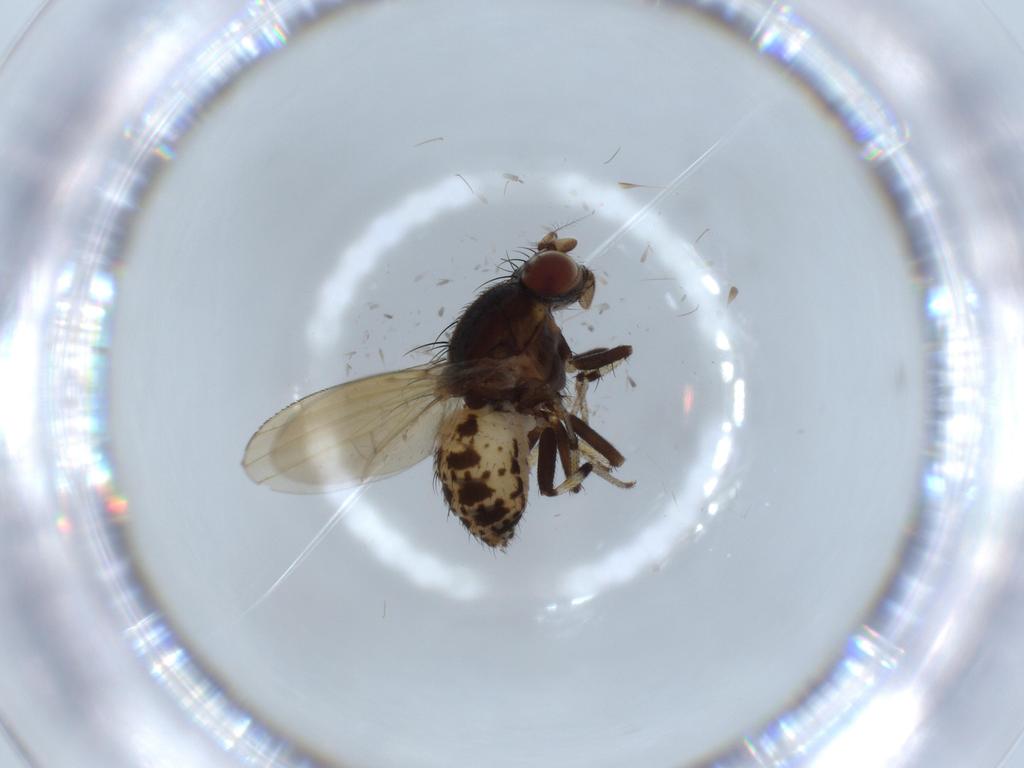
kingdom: Animalia
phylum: Arthropoda
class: Insecta
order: Diptera
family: Cecidomyiidae
